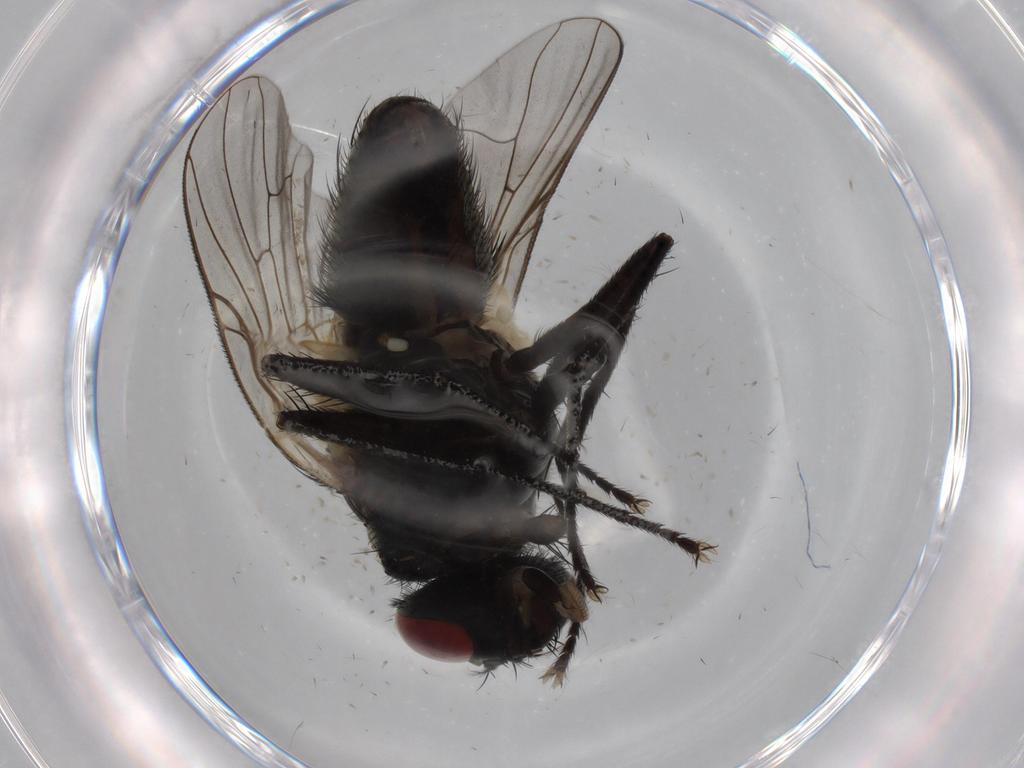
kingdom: Animalia
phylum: Arthropoda
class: Insecta
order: Diptera
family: Muscidae
